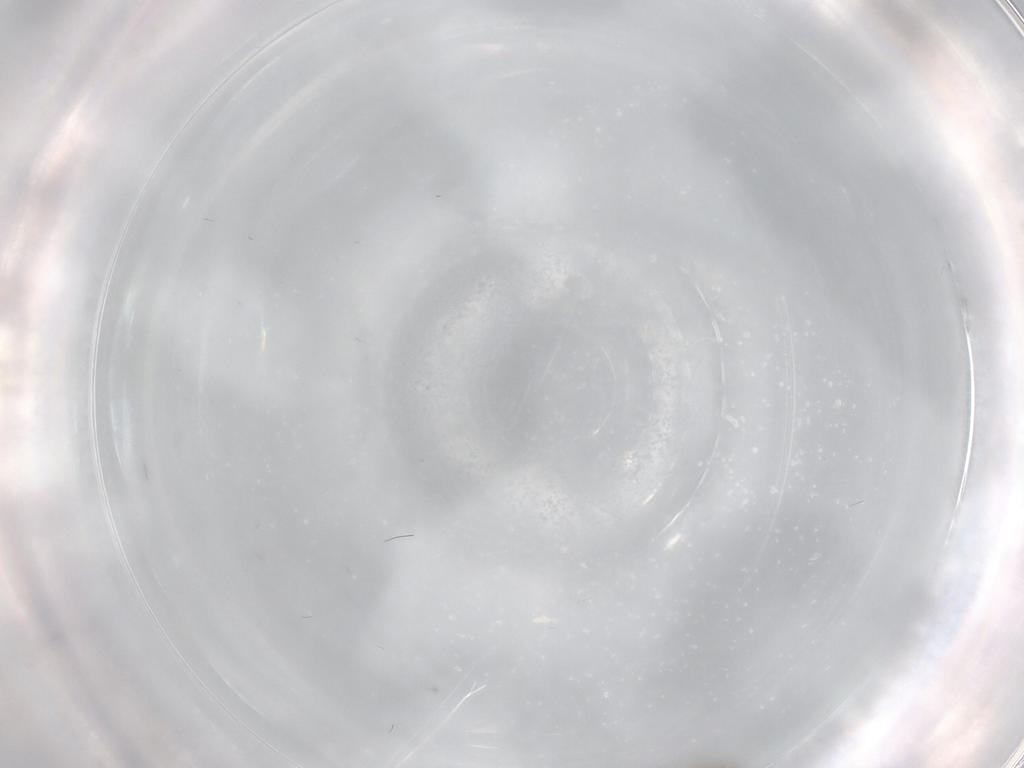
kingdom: Animalia
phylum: Arthropoda
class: Insecta
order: Diptera
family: Cecidomyiidae
